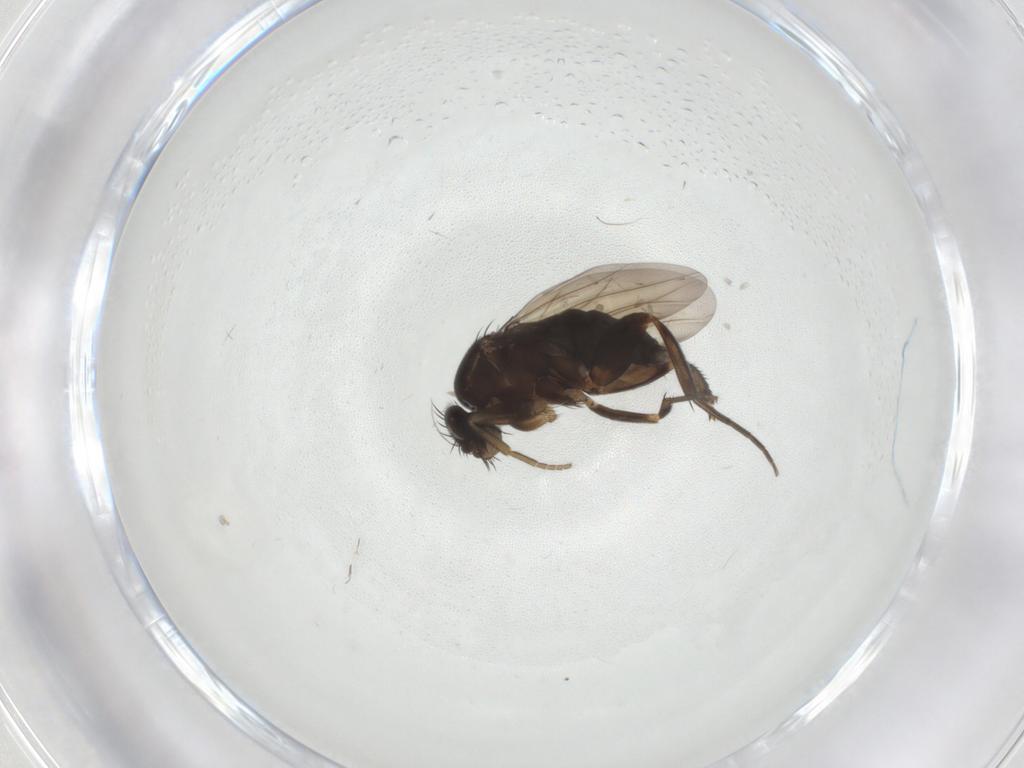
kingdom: Animalia
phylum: Arthropoda
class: Insecta
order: Diptera
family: Phoridae
